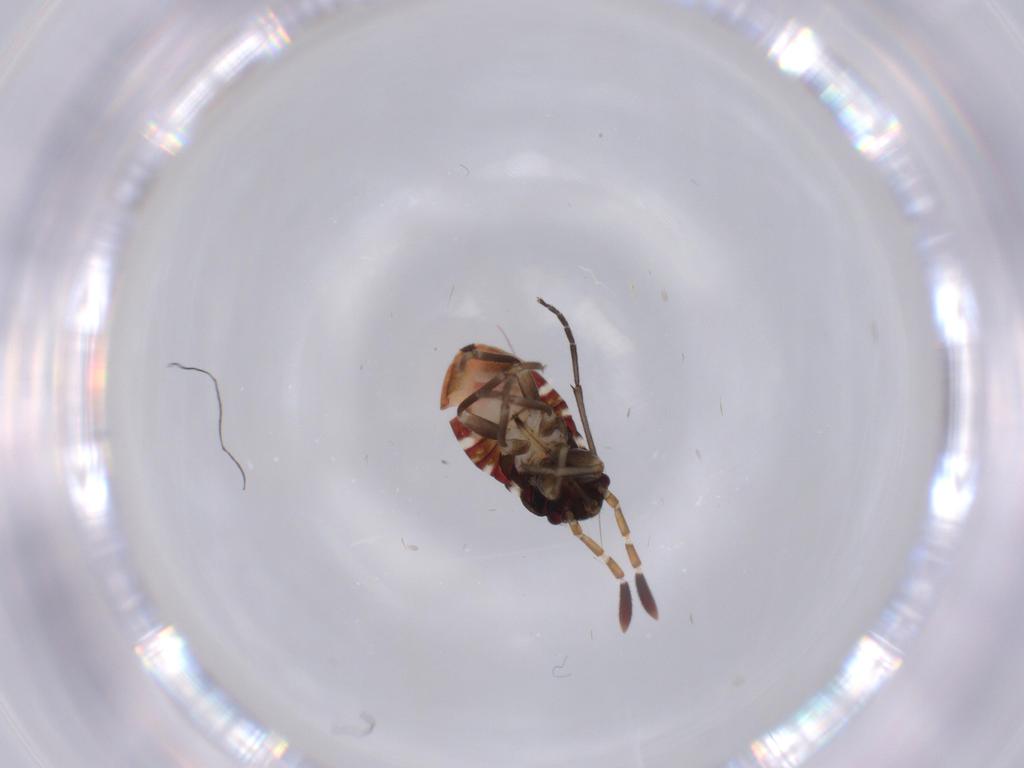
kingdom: Animalia
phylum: Arthropoda
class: Insecta
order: Hemiptera
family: Rhyparochromidae
